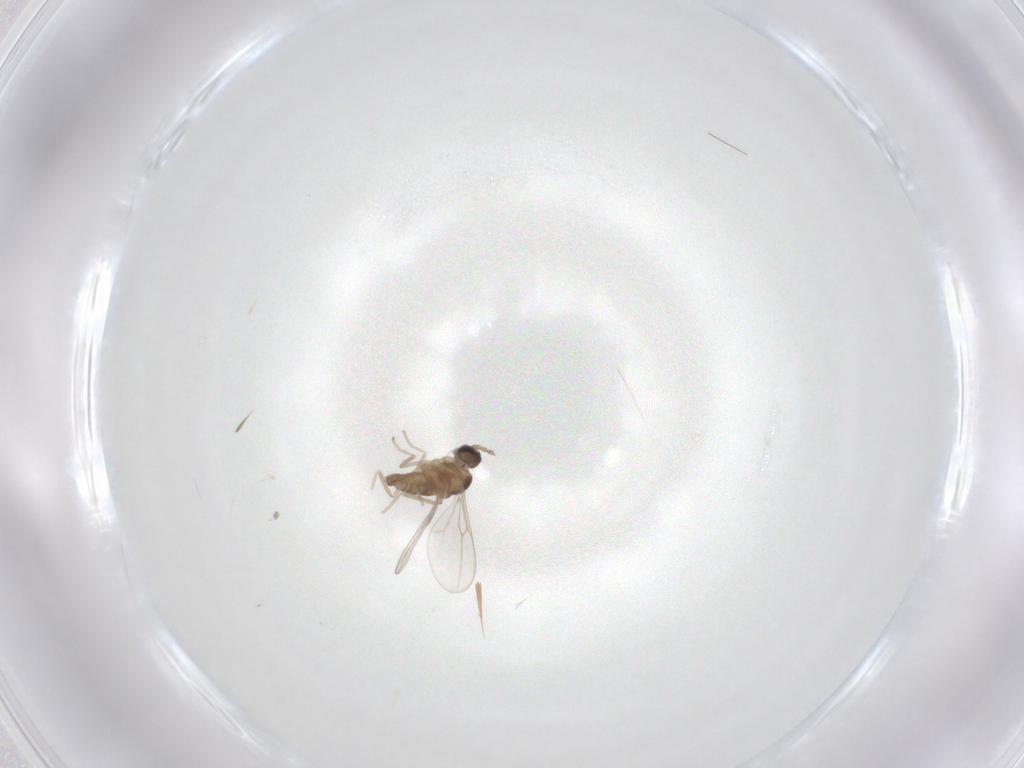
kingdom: Animalia
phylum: Arthropoda
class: Insecta
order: Diptera
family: Cecidomyiidae
